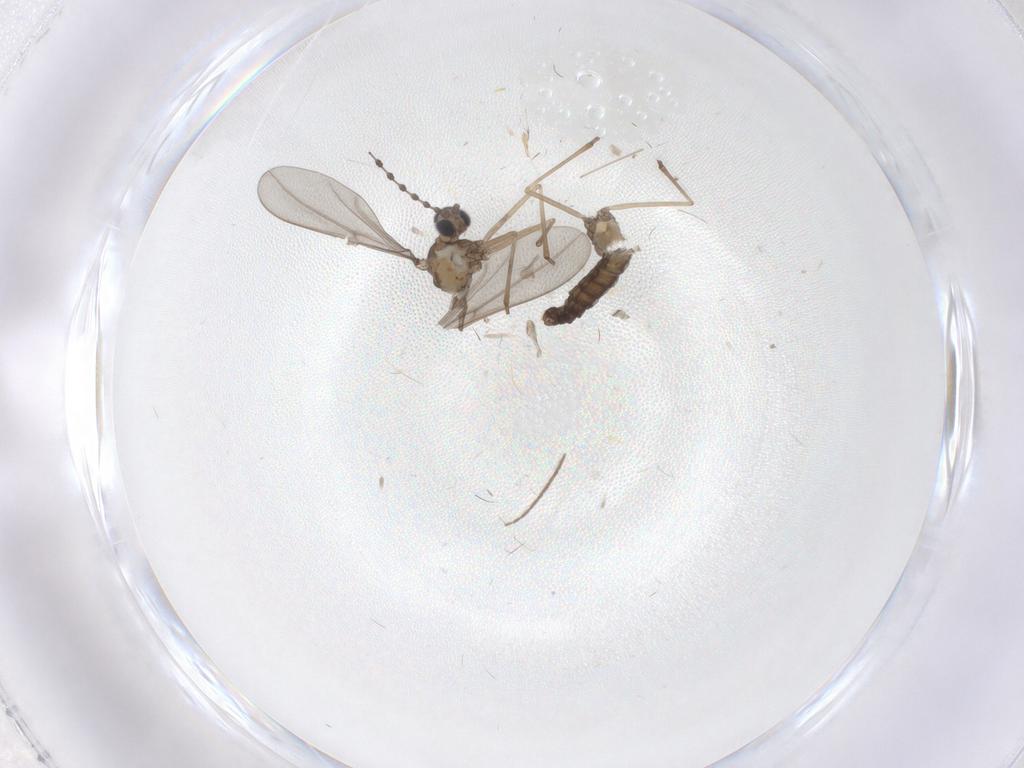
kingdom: Animalia
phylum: Arthropoda
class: Insecta
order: Diptera
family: Chironomidae
